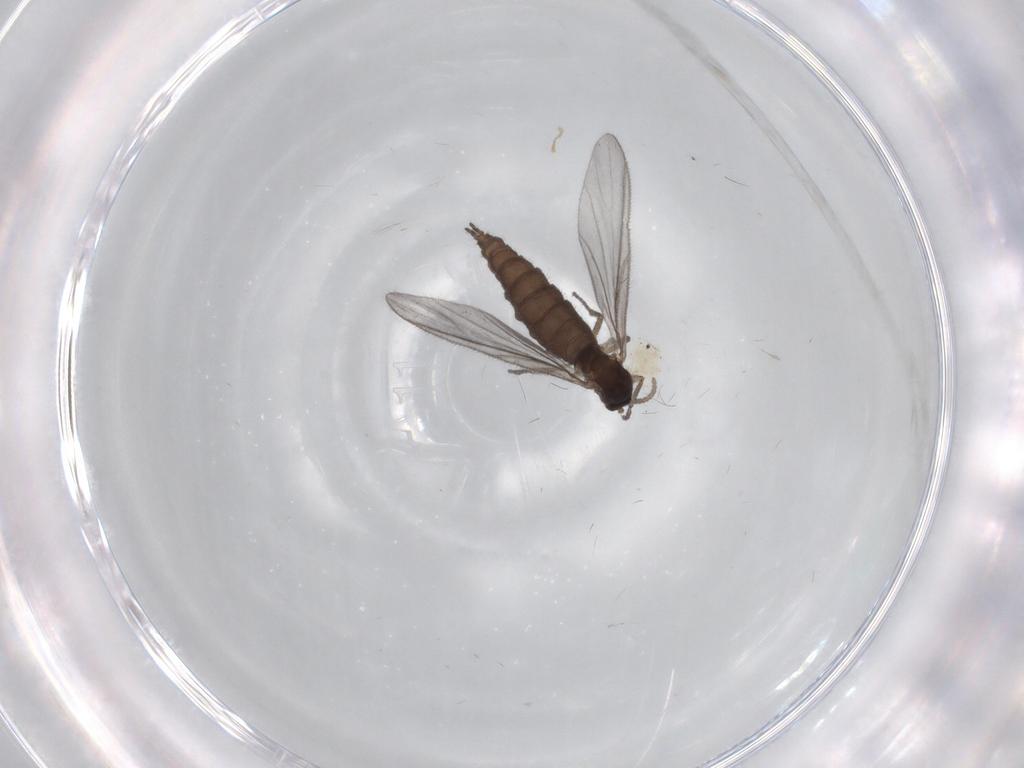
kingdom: Animalia
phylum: Arthropoda
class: Insecta
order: Diptera
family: Sciaridae
